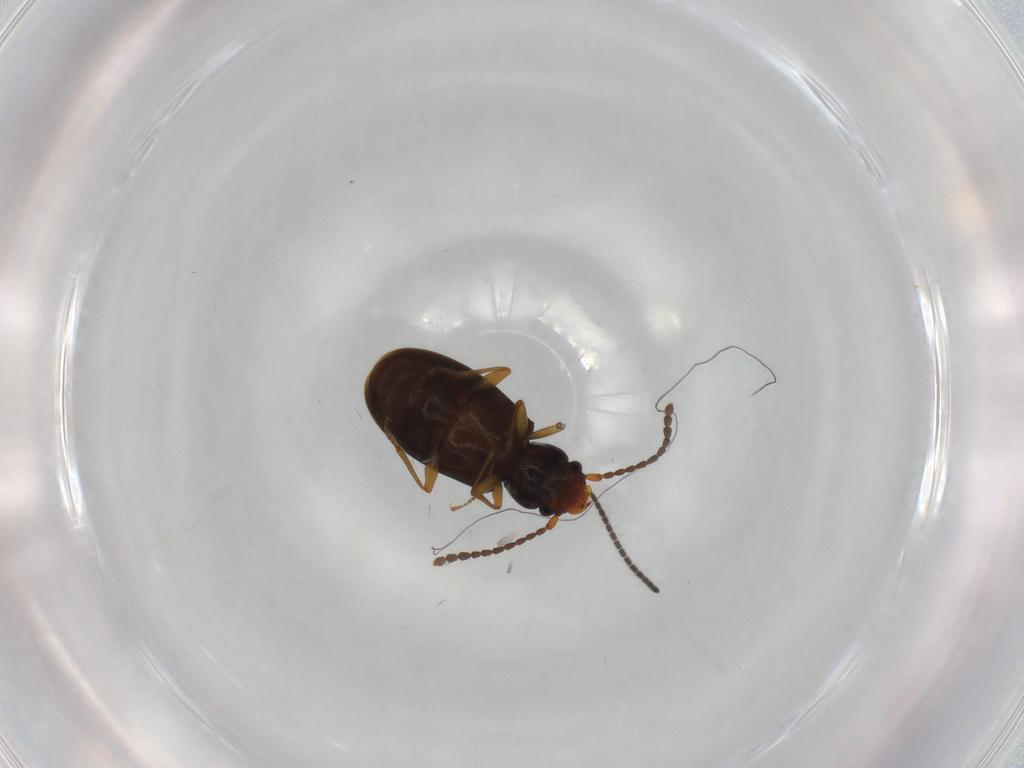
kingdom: Animalia
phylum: Arthropoda
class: Insecta
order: Coleoptera
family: Laemophloeidae
